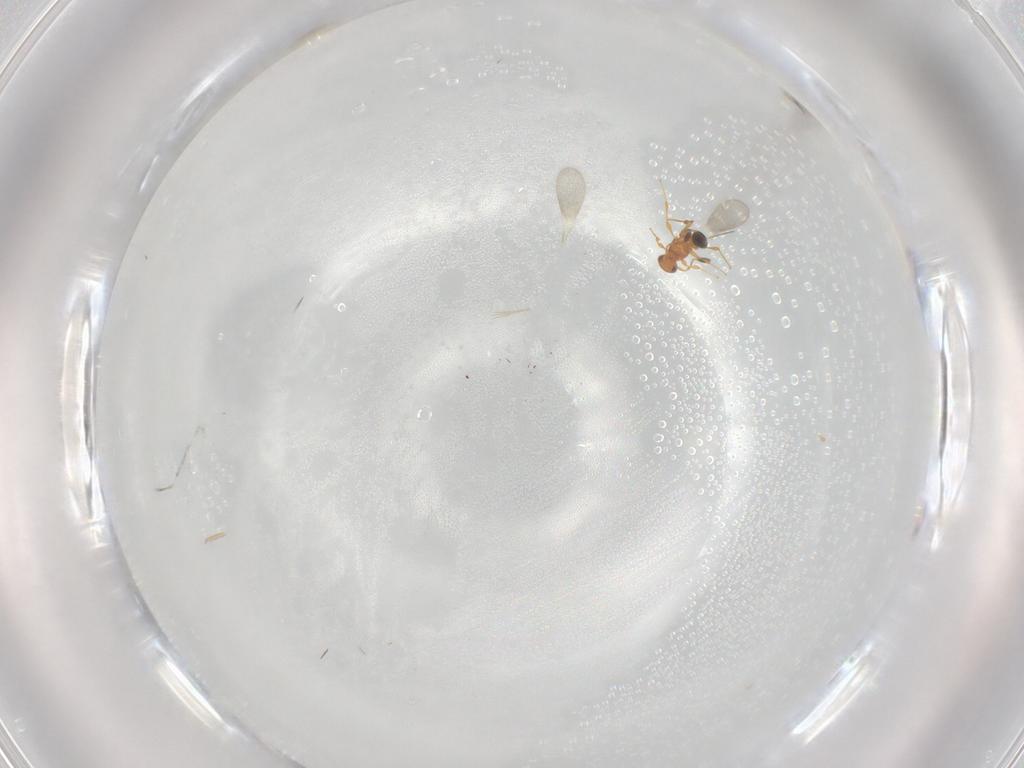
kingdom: Animalia
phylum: Arthropoda
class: Insecta
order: Hymenoptera
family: Platygastridae
